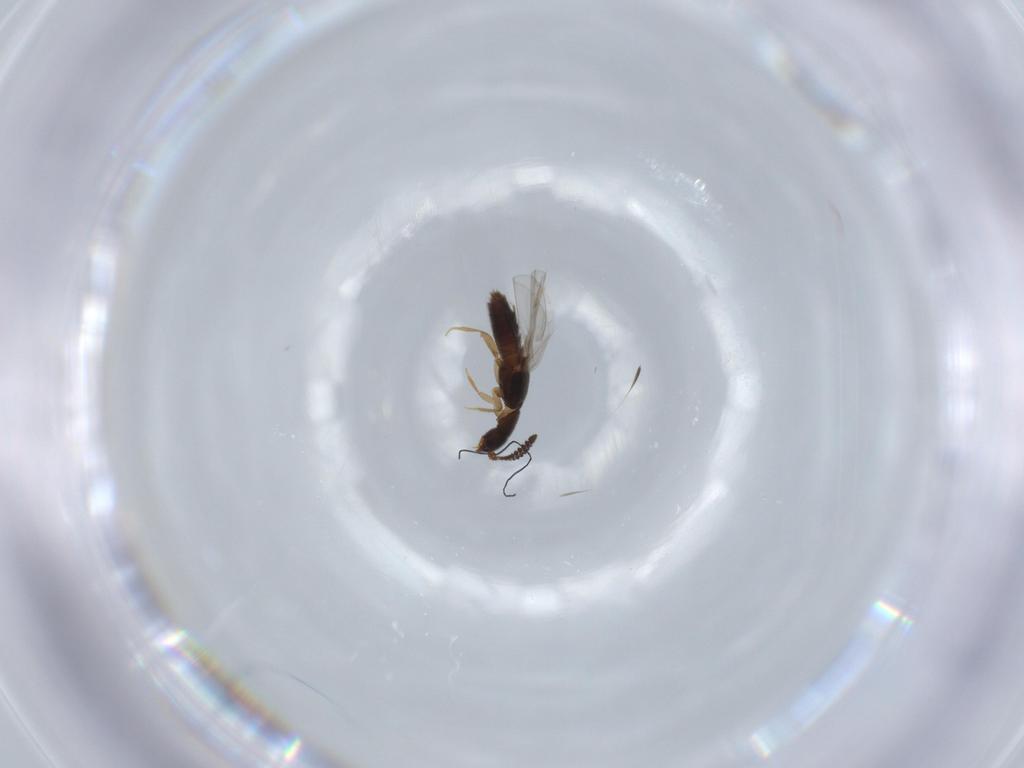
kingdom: Animalia
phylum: Arthropoda
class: Insecta
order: Coleoptera
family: Staphylinidae
